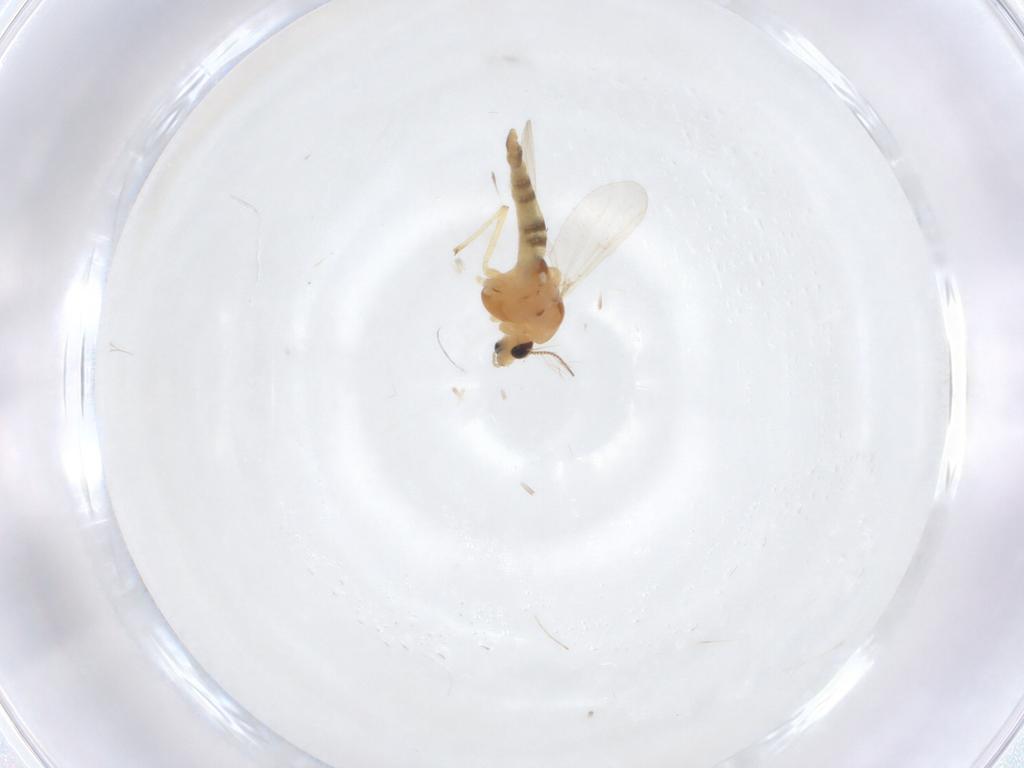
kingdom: Animalia
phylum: Arthropoda
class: Insecta
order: Diptera
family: Chironomidae
